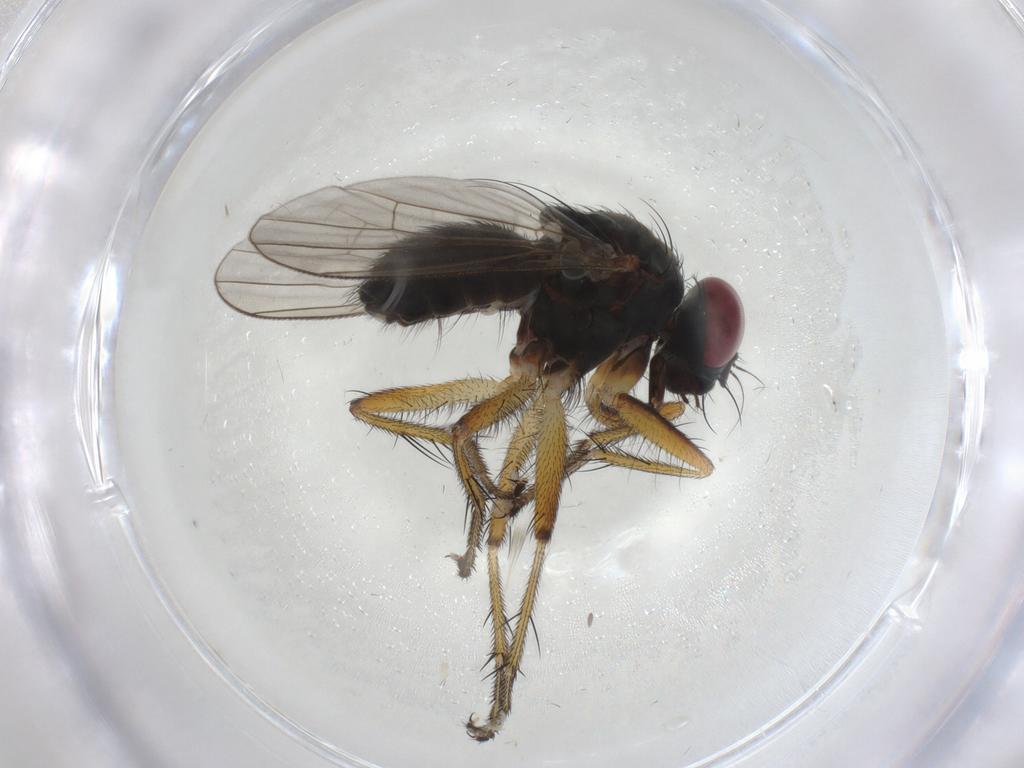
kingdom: Animalia
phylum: Arthropoda
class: Insecta
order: Diptera
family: Muscidae
